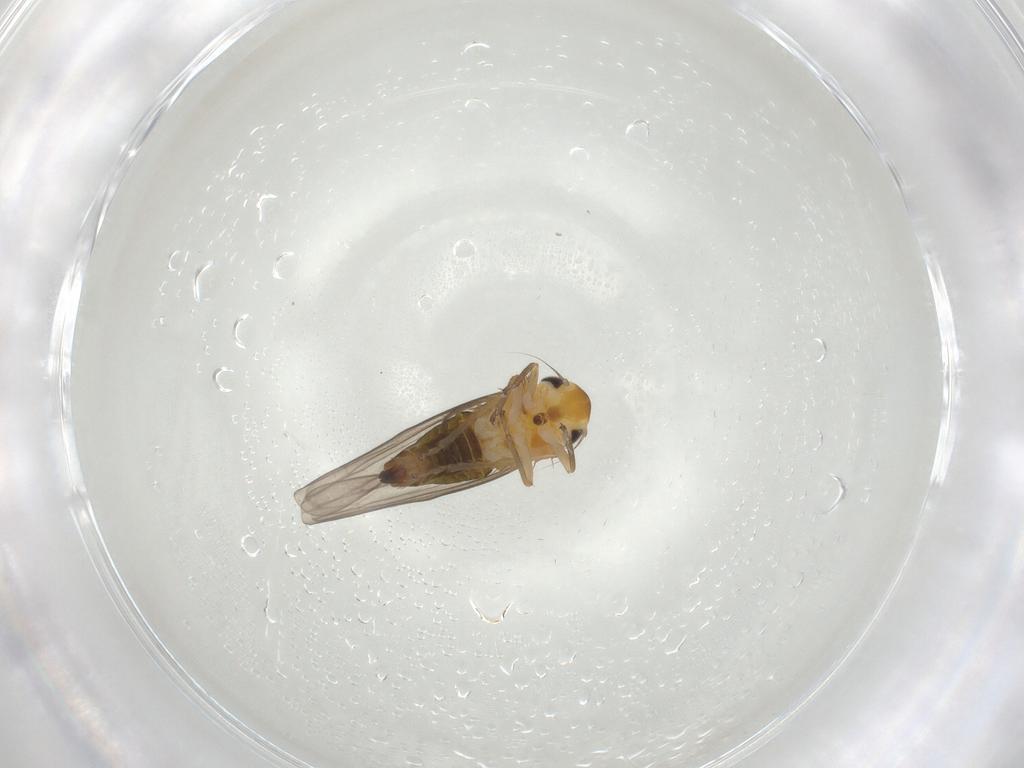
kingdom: Animalia
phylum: Arthropoda
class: Insecta
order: Hemiptera
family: Cicadellidae
